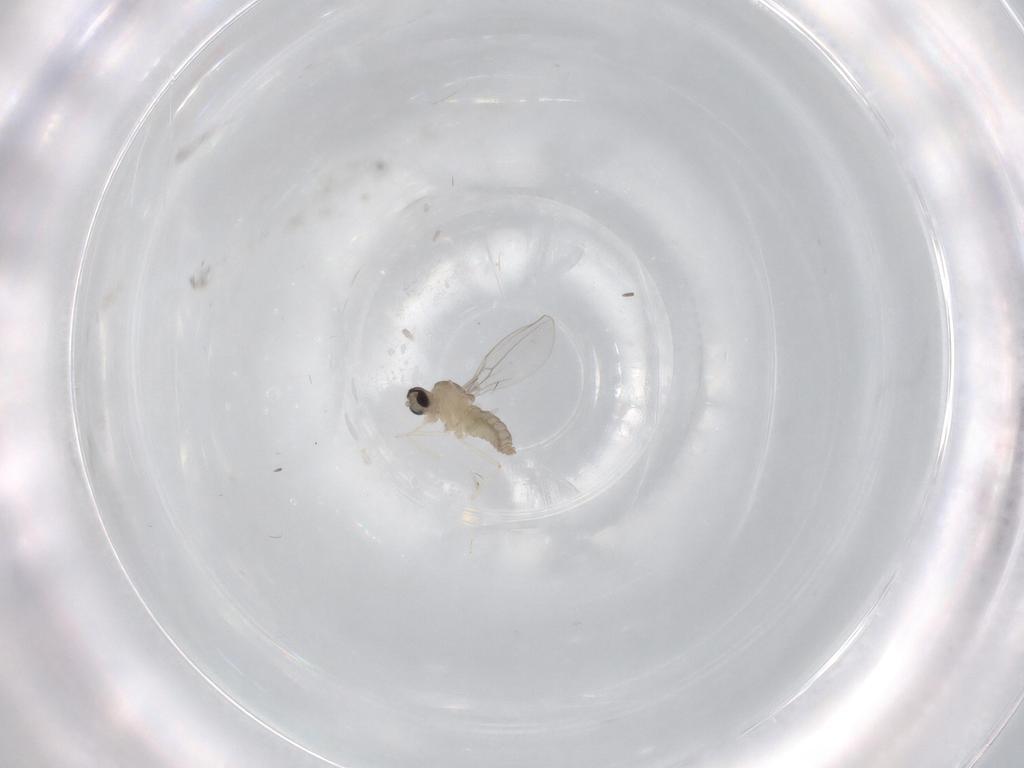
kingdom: Animalia
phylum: Arthropoda
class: Insecta
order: Diptera
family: Cecidomyiidae
